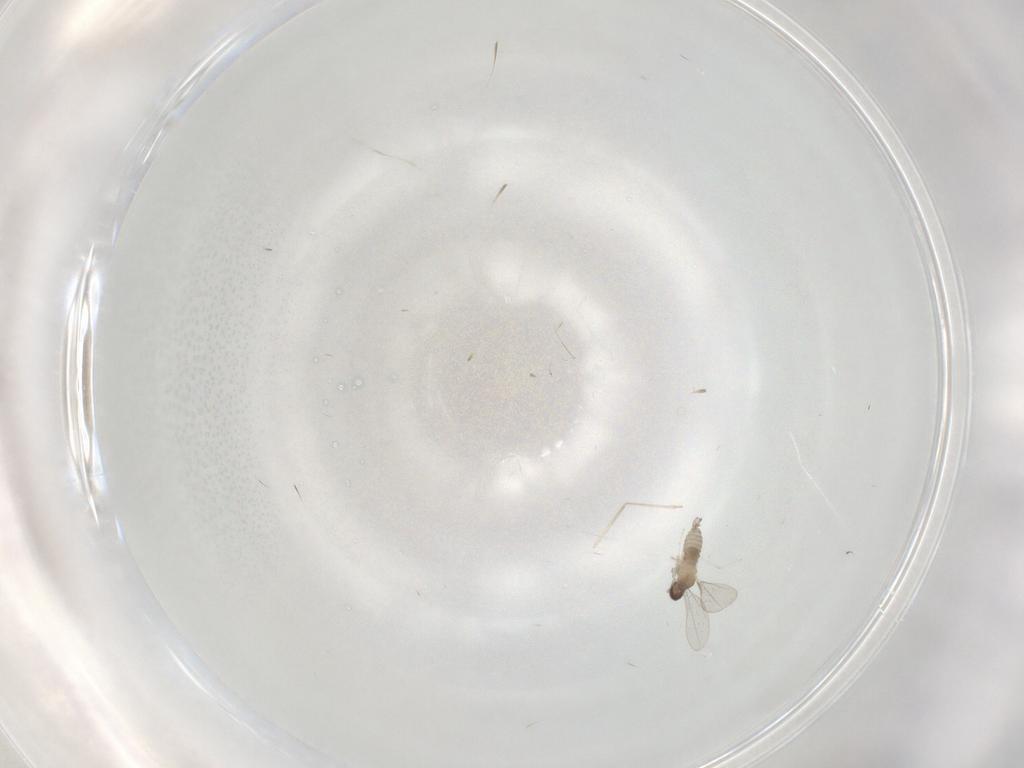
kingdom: Animalia
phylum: Arthropoda
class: Insecta
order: Diptera
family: Cecidomyiidae
